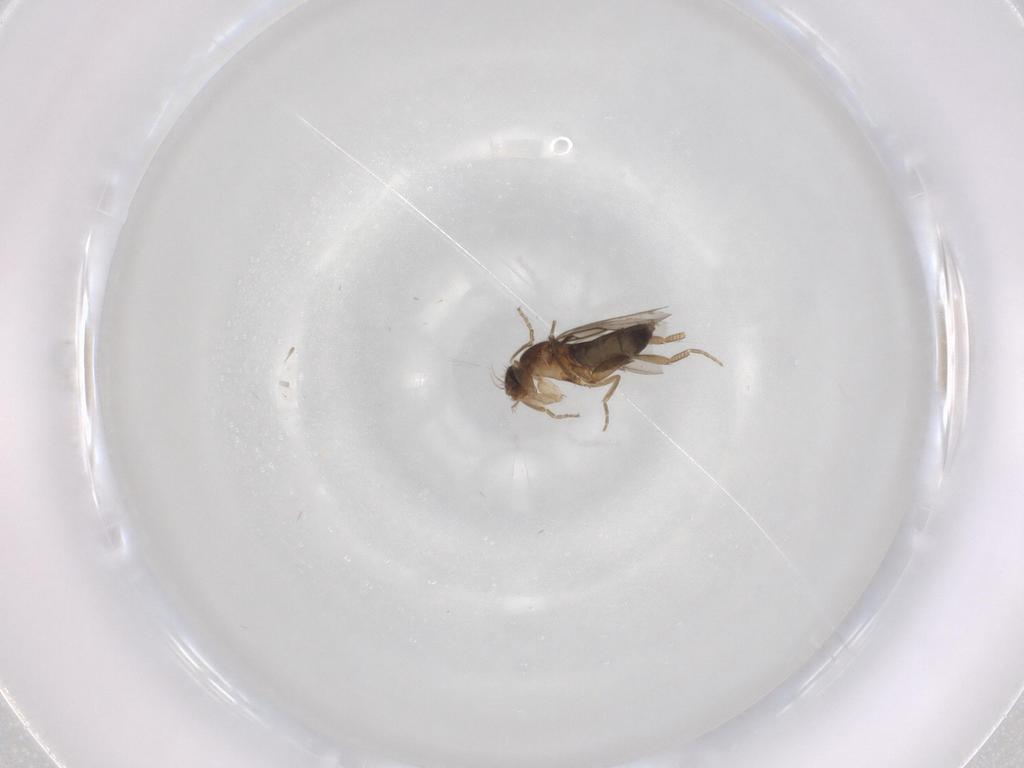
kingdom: Animalia
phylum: Arthropoda
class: Insecta
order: Diptera
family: Phoridae
